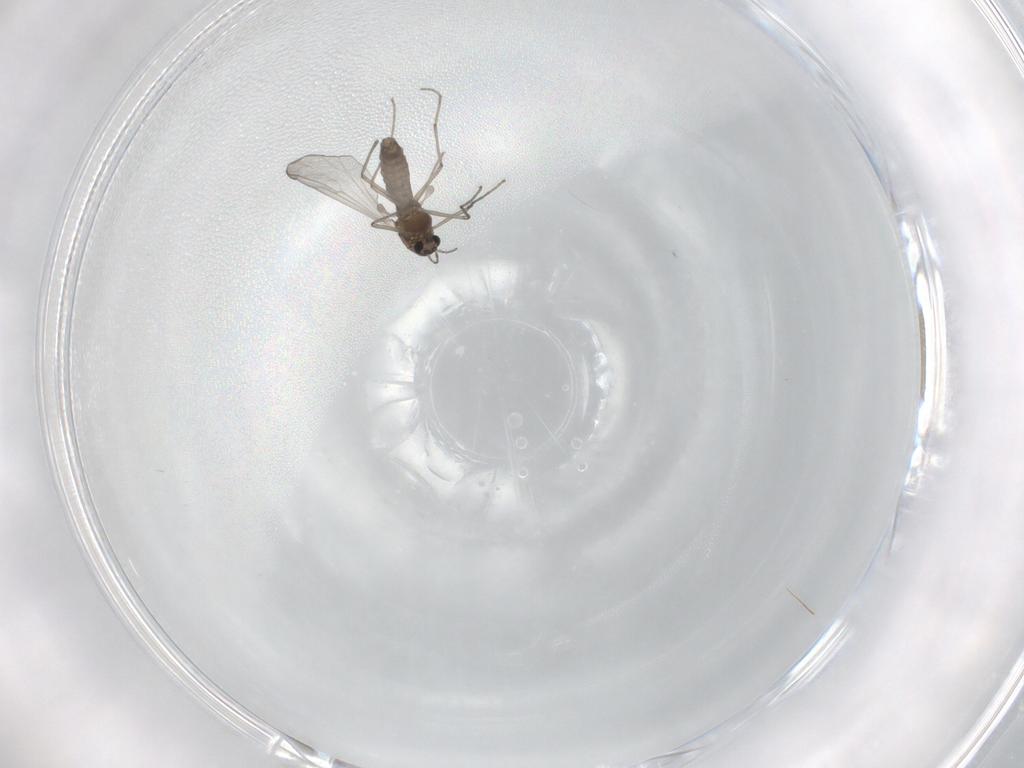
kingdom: Animalia
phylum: Arthropoda
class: Insecta
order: Diptera
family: Chironomidae
